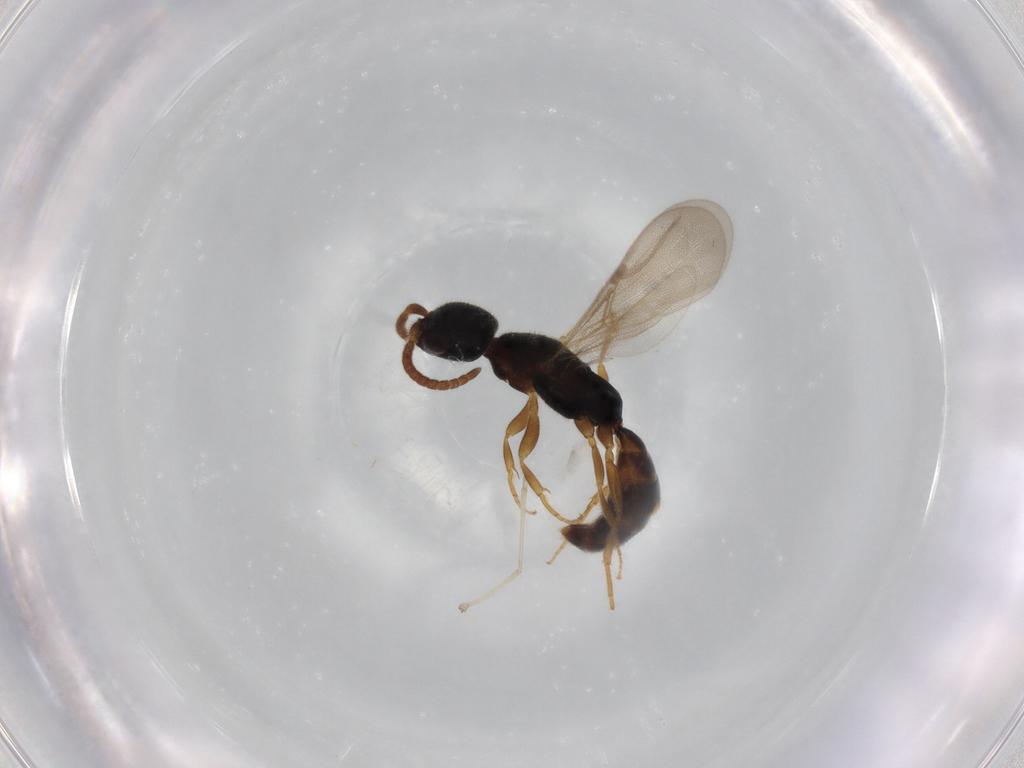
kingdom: Animalia
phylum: Arthropoda
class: Insecta
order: Hymenoptera
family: Bethylidae
